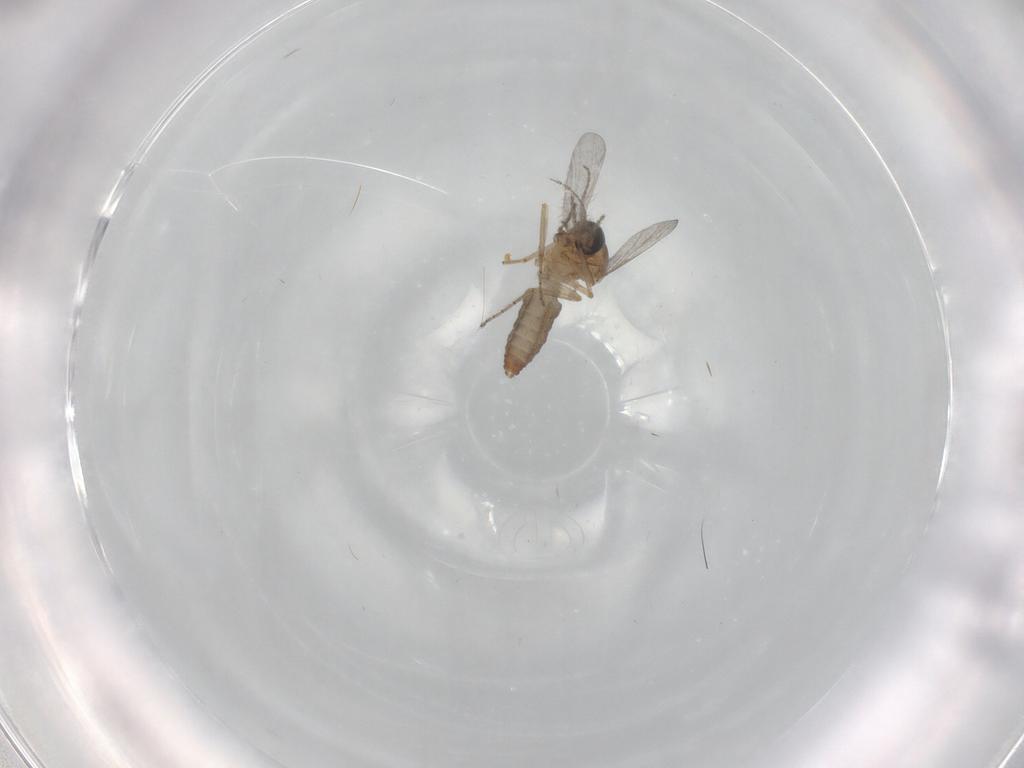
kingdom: Animalia
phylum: Arthropoda
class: Insecta
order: Diptera
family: Ceratopogonidae
